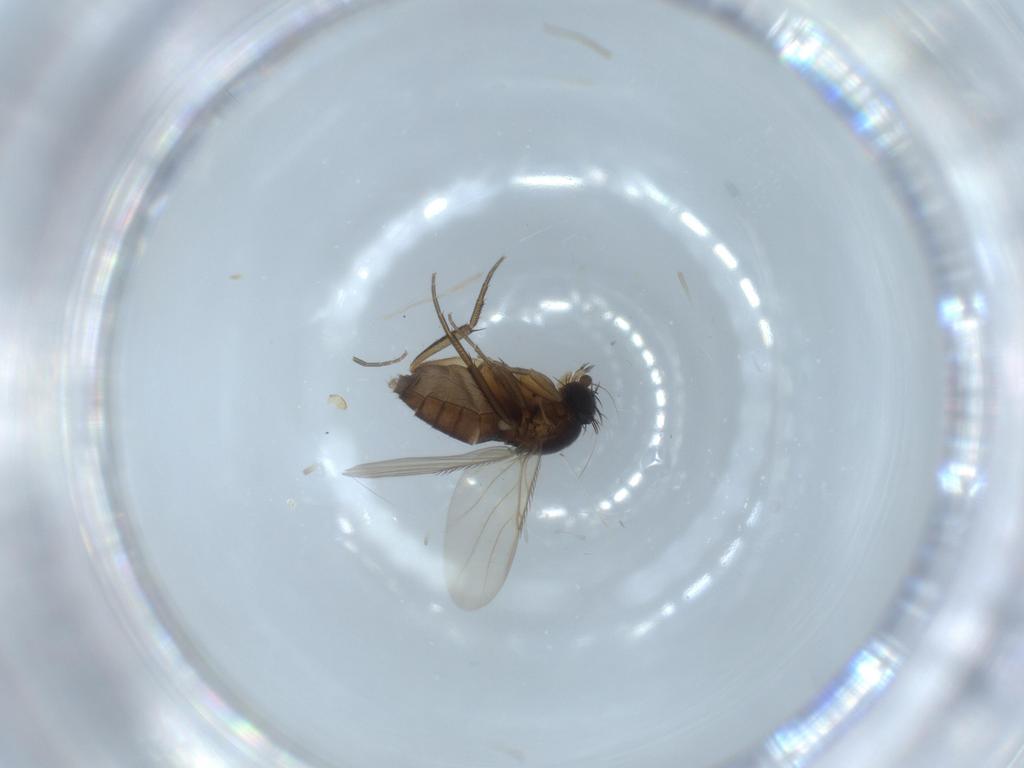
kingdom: Animalia
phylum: Arthropoda
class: Insecta
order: Diptera
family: Phoridae
